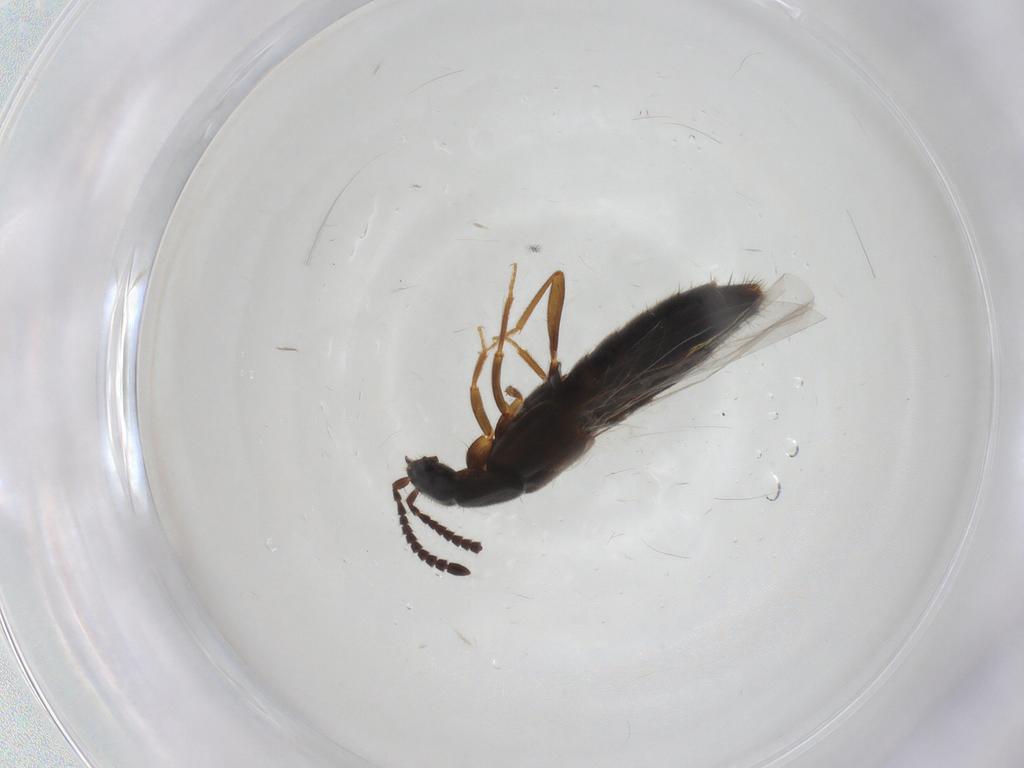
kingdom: Animalia
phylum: Arthropoda
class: Insecta
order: Coleoptera
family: Staphylinidae
